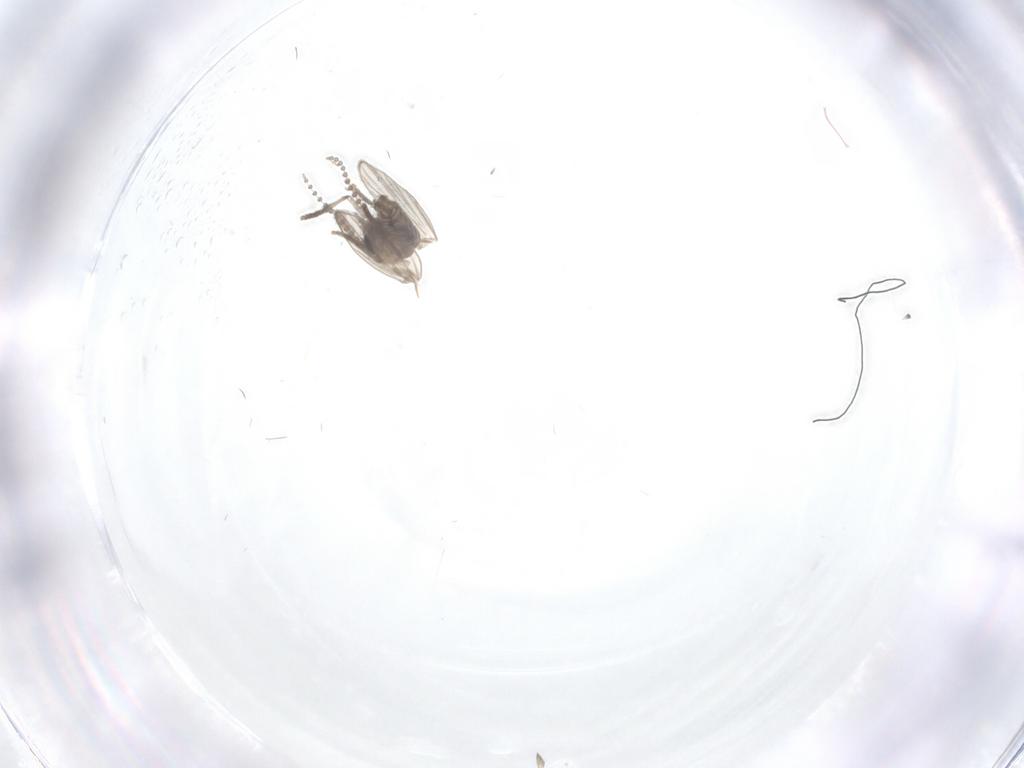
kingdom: Animalia
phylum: Arthropoda
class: Insecta
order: Diptera
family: Psychodidae
